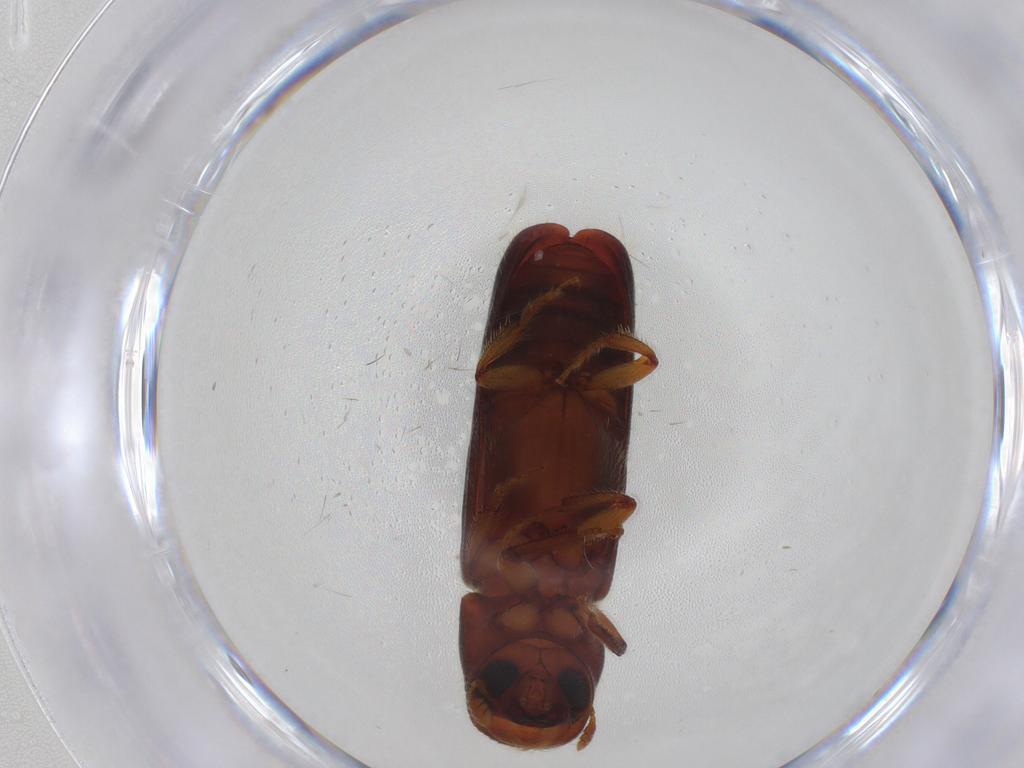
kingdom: Animalia
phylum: Arthropoda
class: Insecta
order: Coleoptera
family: Curculionidae
